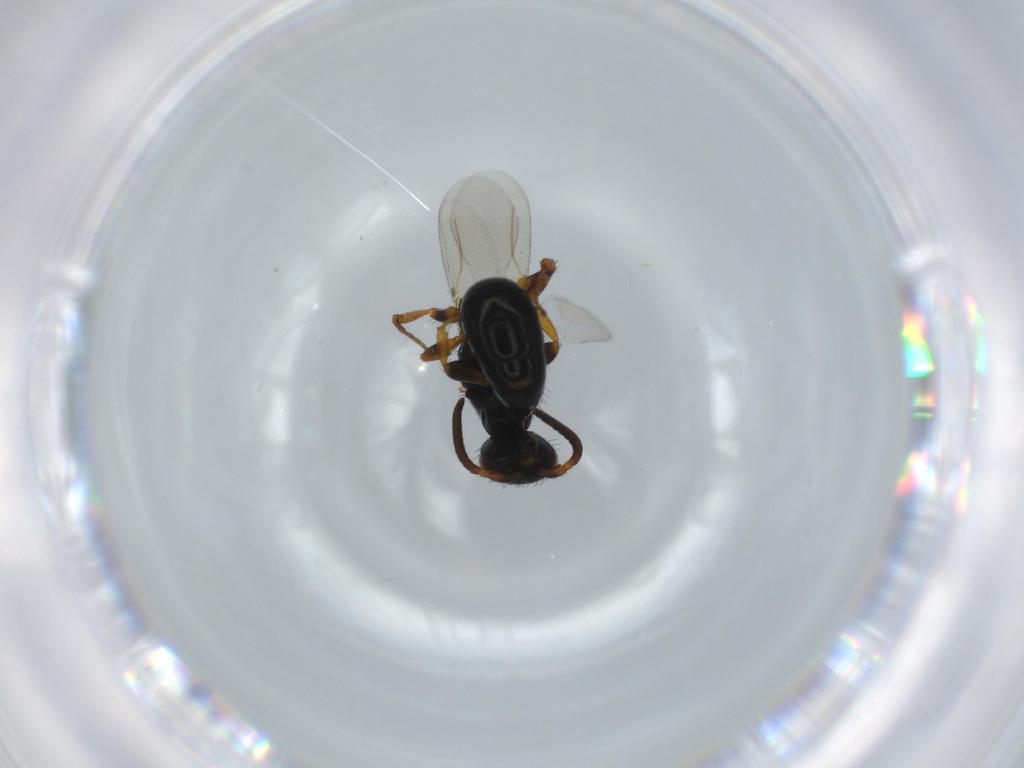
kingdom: Animalia
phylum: Arthropoda
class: Insecta
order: Hymenoptera
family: Bethylidae
